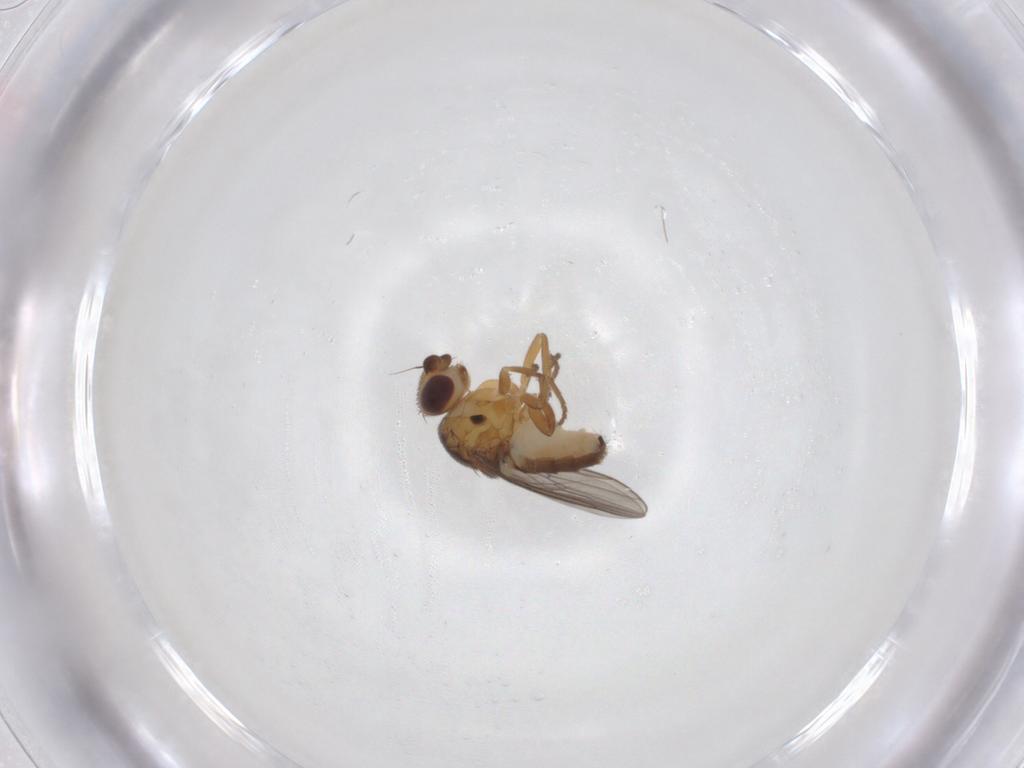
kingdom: Animalia
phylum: Arthropoda
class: Insecta
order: Diptera
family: Chloropidae
